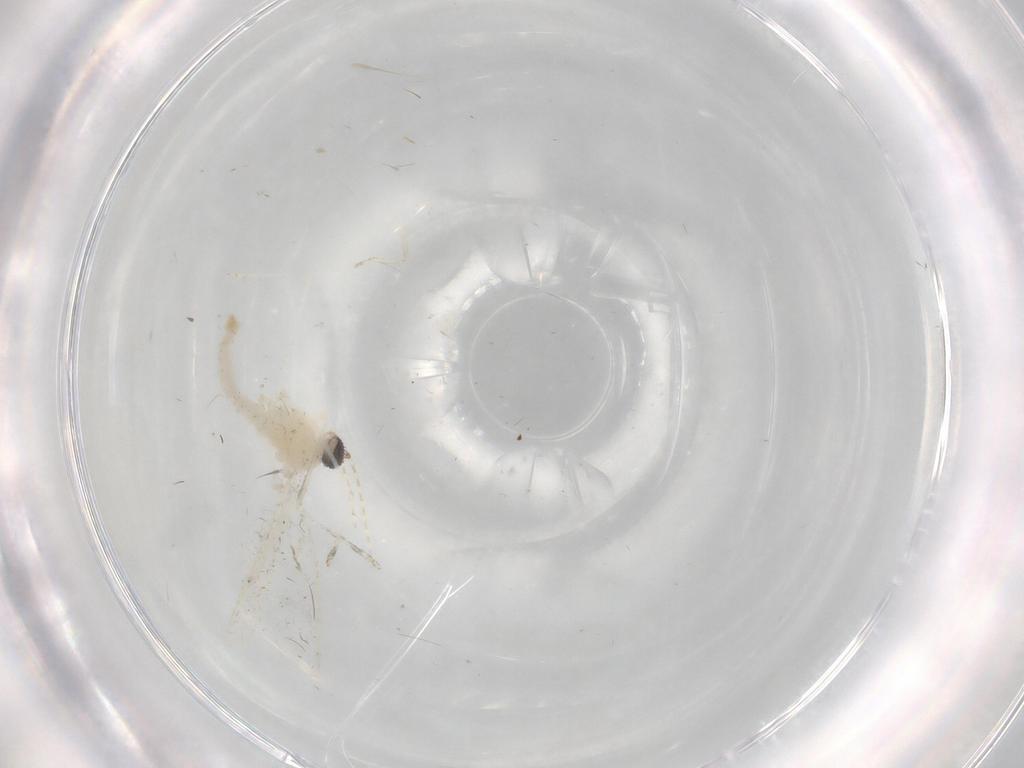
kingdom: Animalia
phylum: Arthropoda
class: Insecta
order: Diptera
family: Cecidomyiidae
